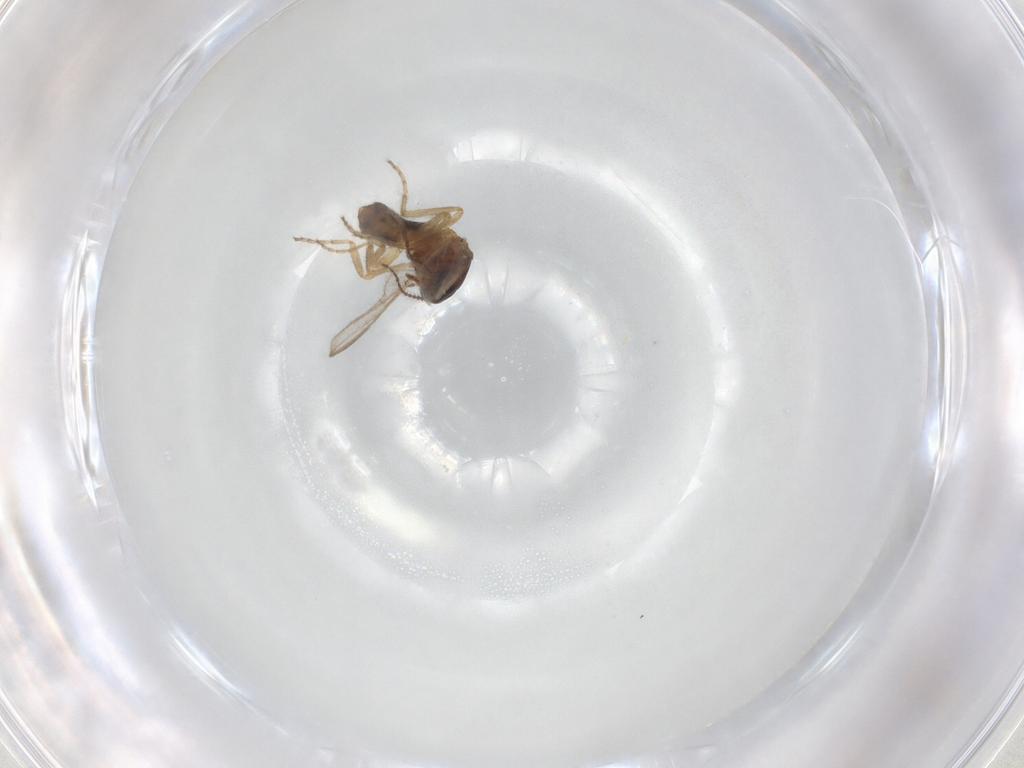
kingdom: Animalia
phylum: Arthropoda
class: Insecta
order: Diptera
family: Ceratopogonidae
